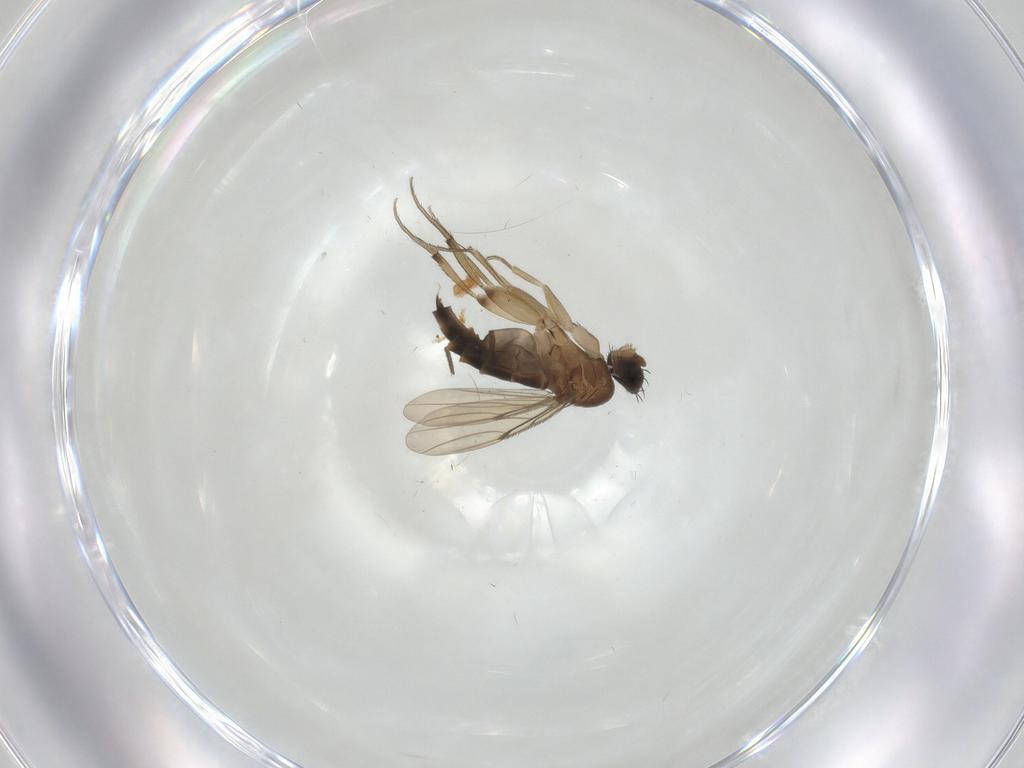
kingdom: Animalia
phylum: Arthropoda
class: Insecta
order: Diptera
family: Phoridae
